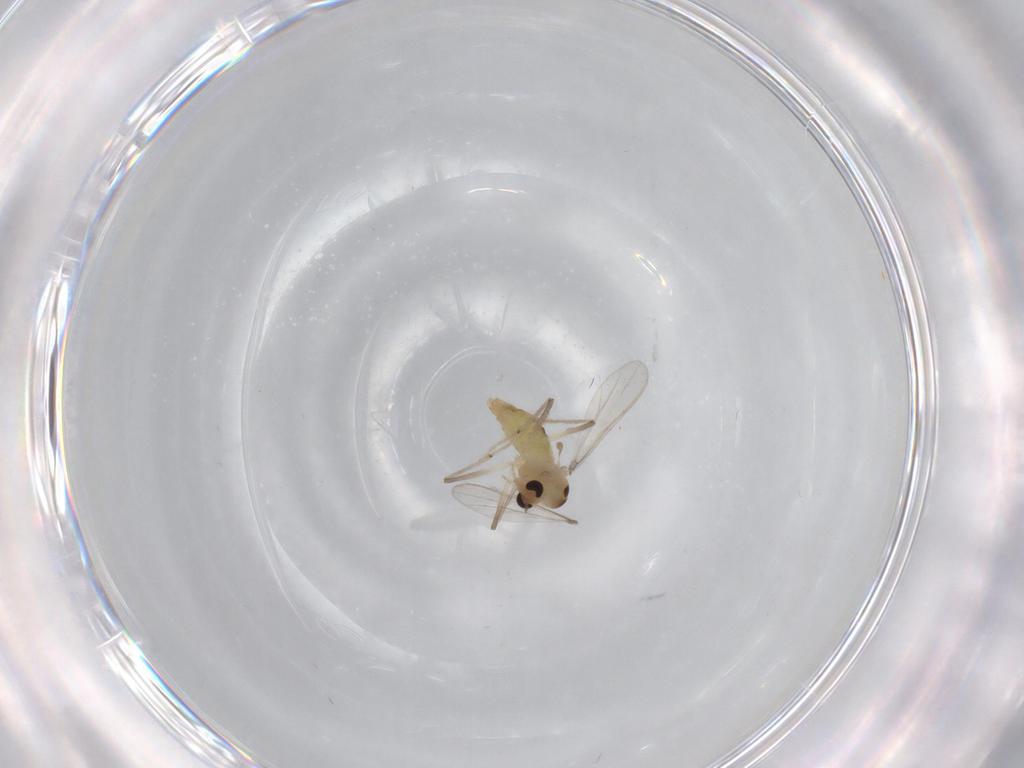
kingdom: Animalia
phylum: Arthropoda
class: Insecta
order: Diptera
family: Chironomidae
